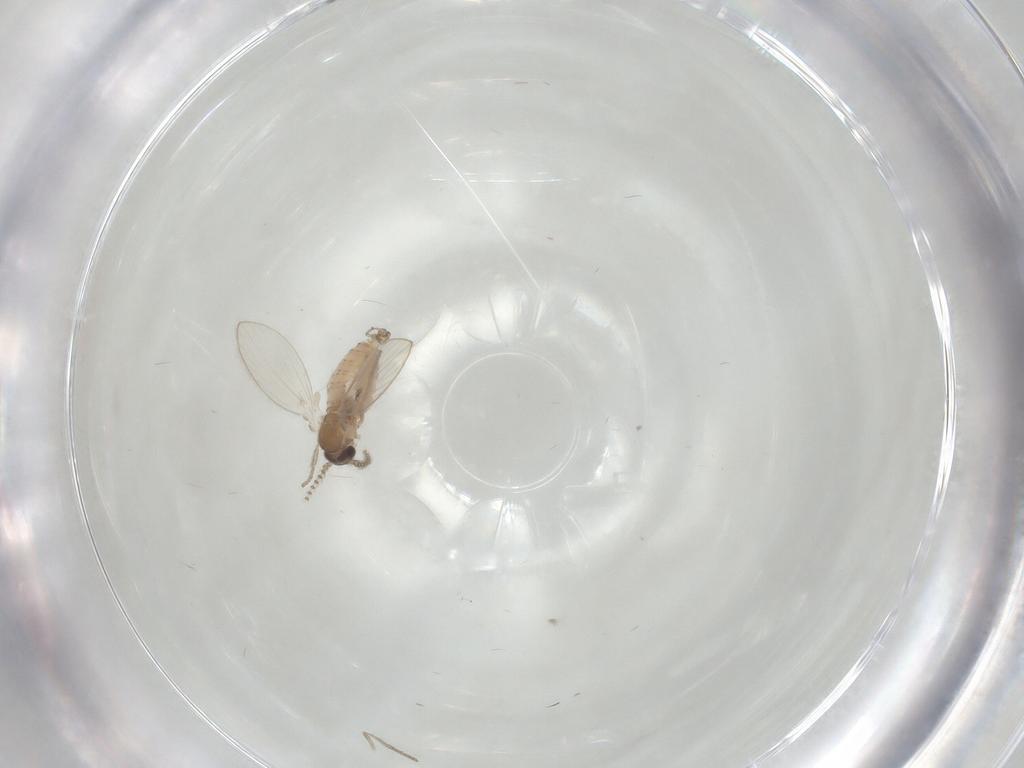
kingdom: Animalia
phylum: Arthropoda
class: Insecta
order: Diptera
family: Psychodidae
